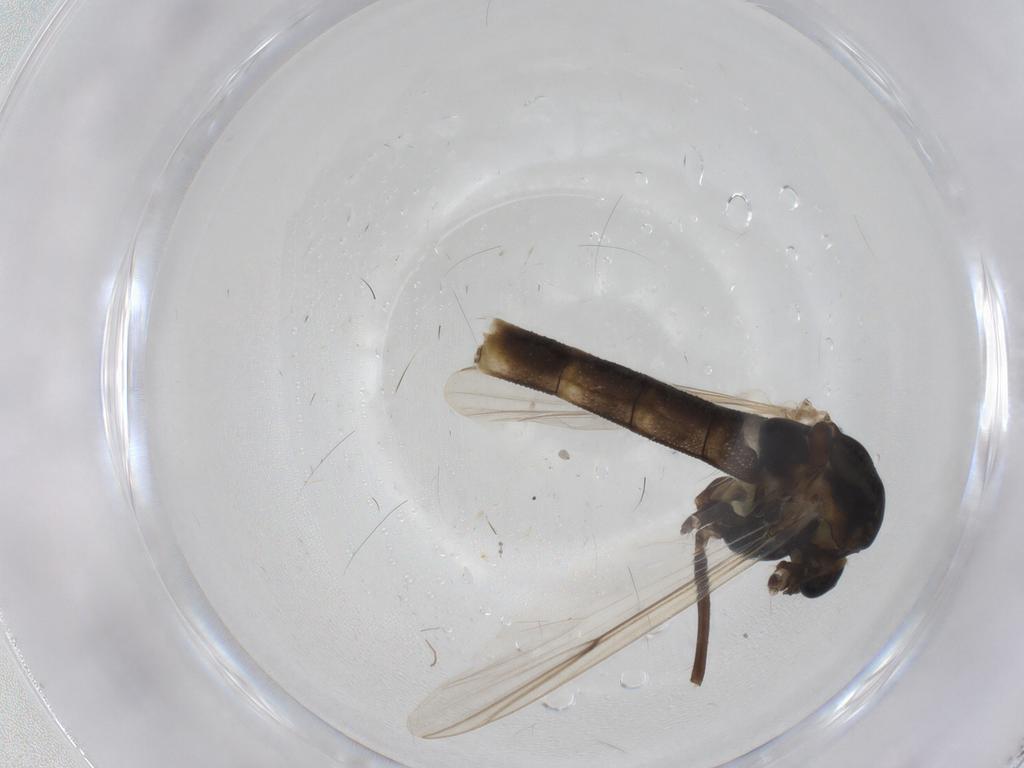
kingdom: Animalia
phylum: Arthropoda
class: Insecta
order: Diptera
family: Chironomidae
